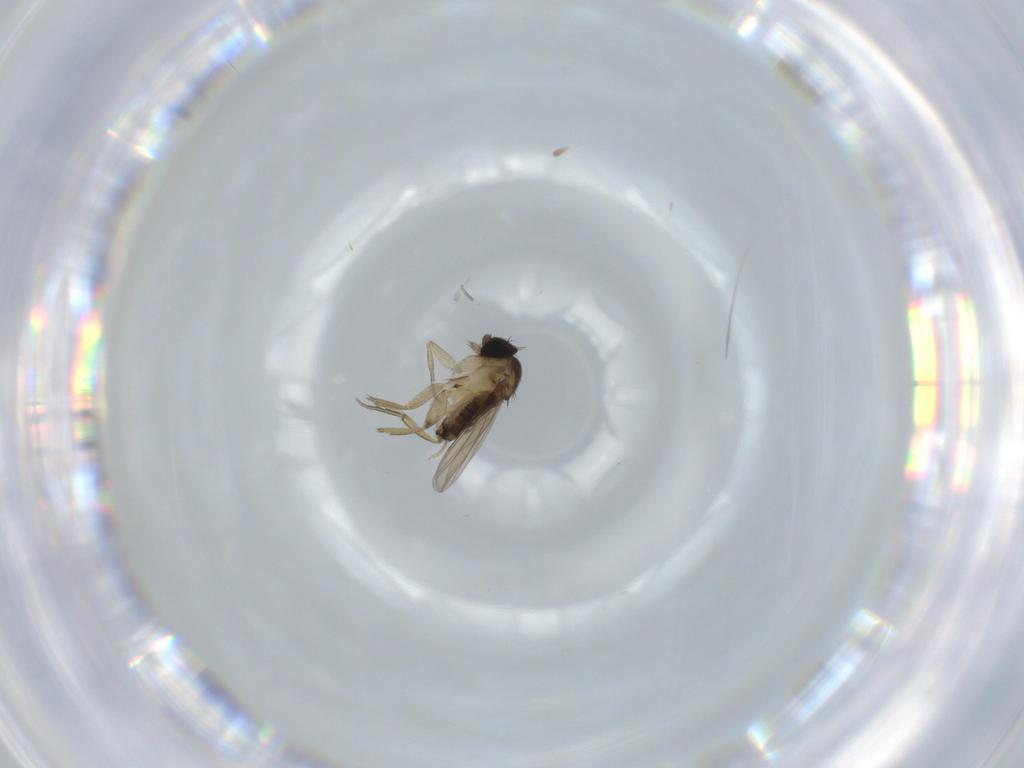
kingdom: Animalia
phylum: Arthropoda
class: Insecta
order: Diptera
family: Phoridae
